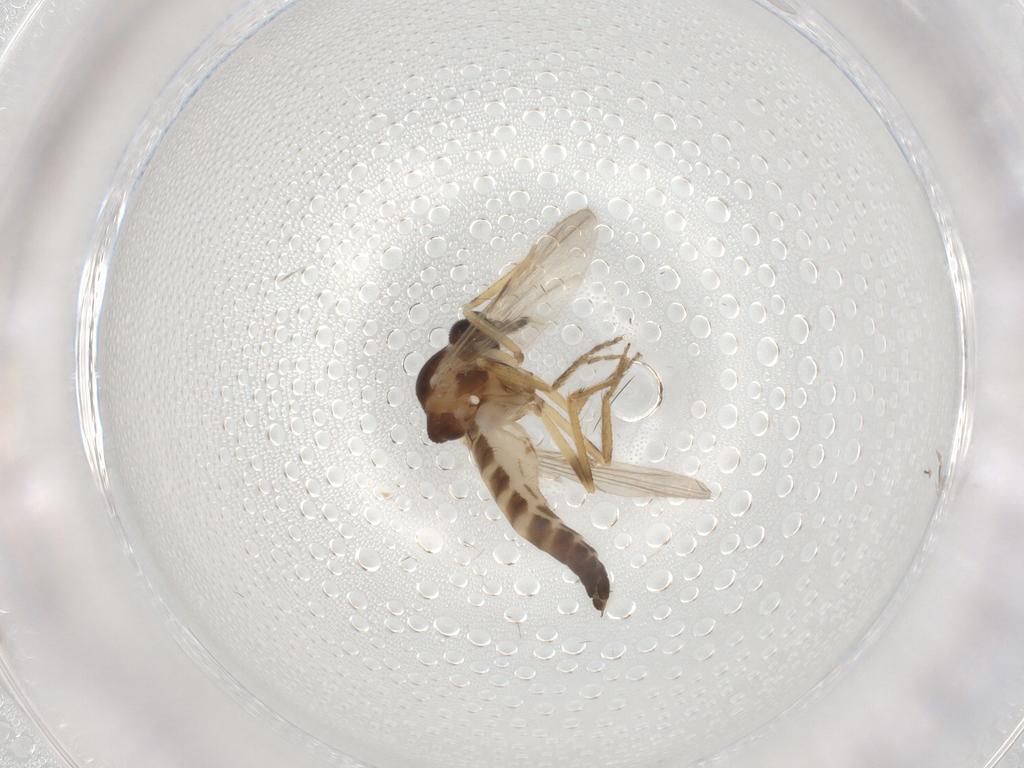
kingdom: Animalia
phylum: Arthropoda
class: Insecta
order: Diptera
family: Ceratopogonidae
